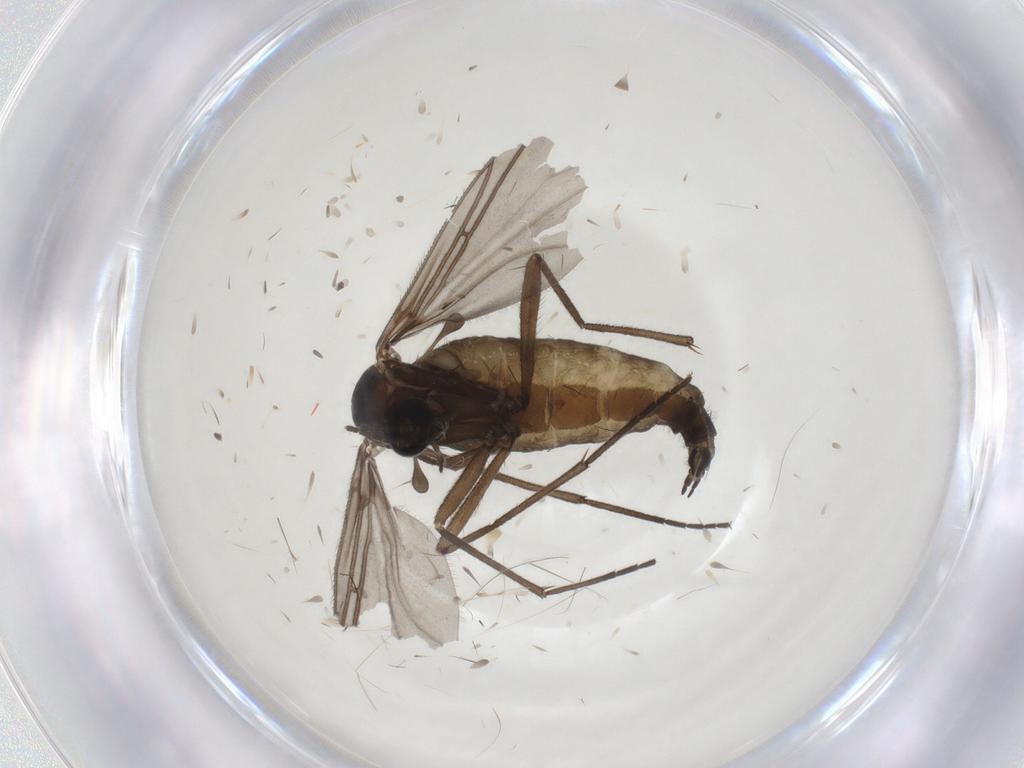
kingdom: Animalia
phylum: Arthropoda
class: Insecta
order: Diptera
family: Sciaridae
